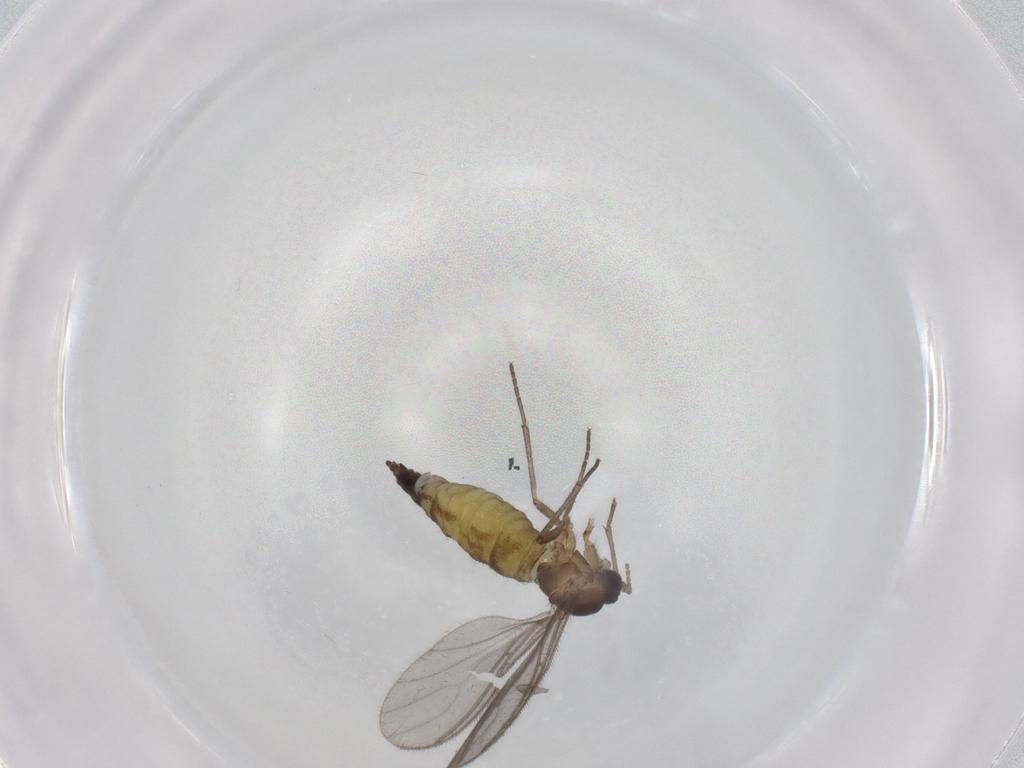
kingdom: Animalia
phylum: Arthropoda
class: Insecta
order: Diptera
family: Sciaridae
